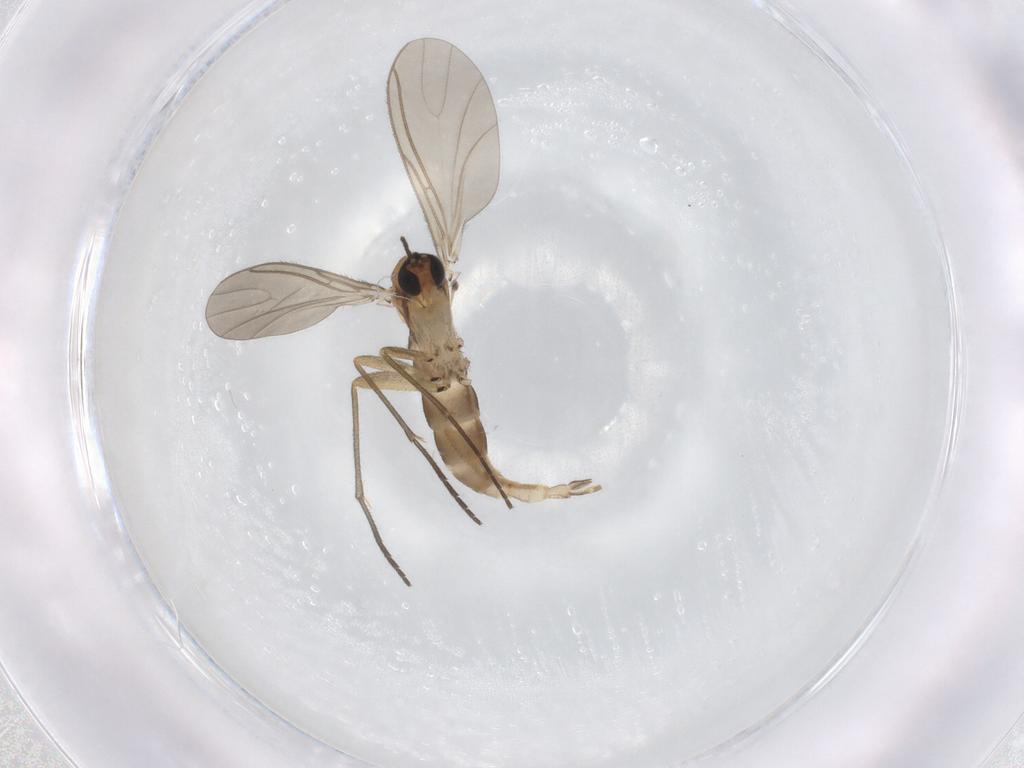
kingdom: Animalia
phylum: Arthropoda
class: Insecta
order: Diptera
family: Sciaridae
